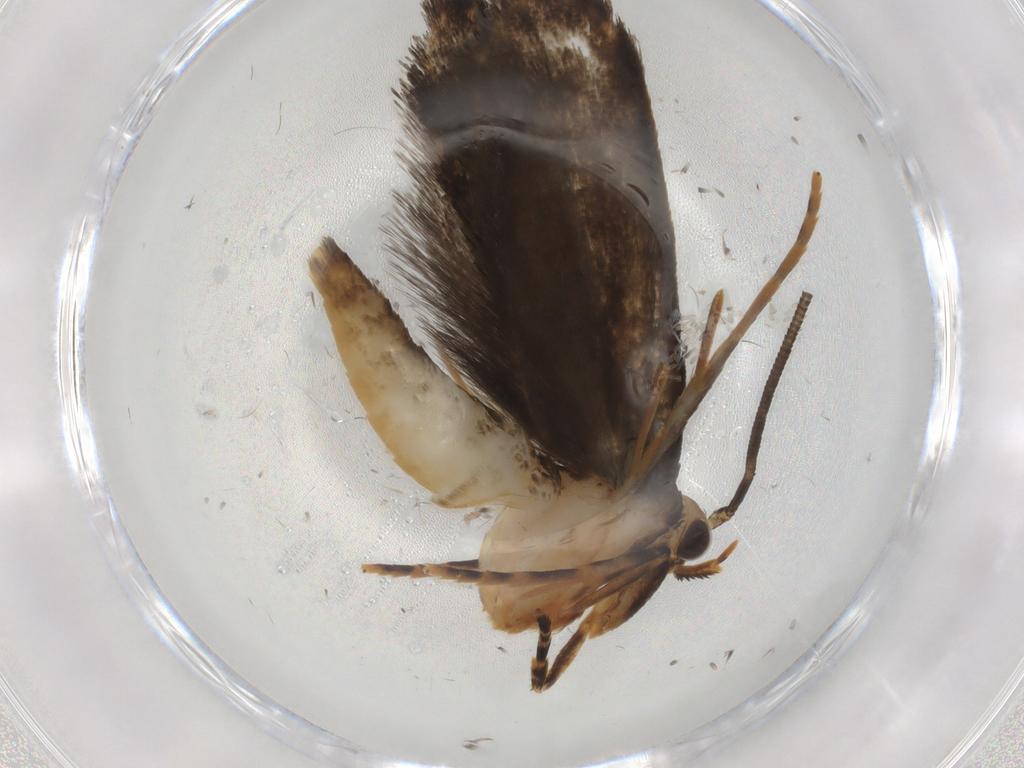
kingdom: Animalia
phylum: Arthropoda
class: Insecta
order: Lepidoptera
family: Tineidae
